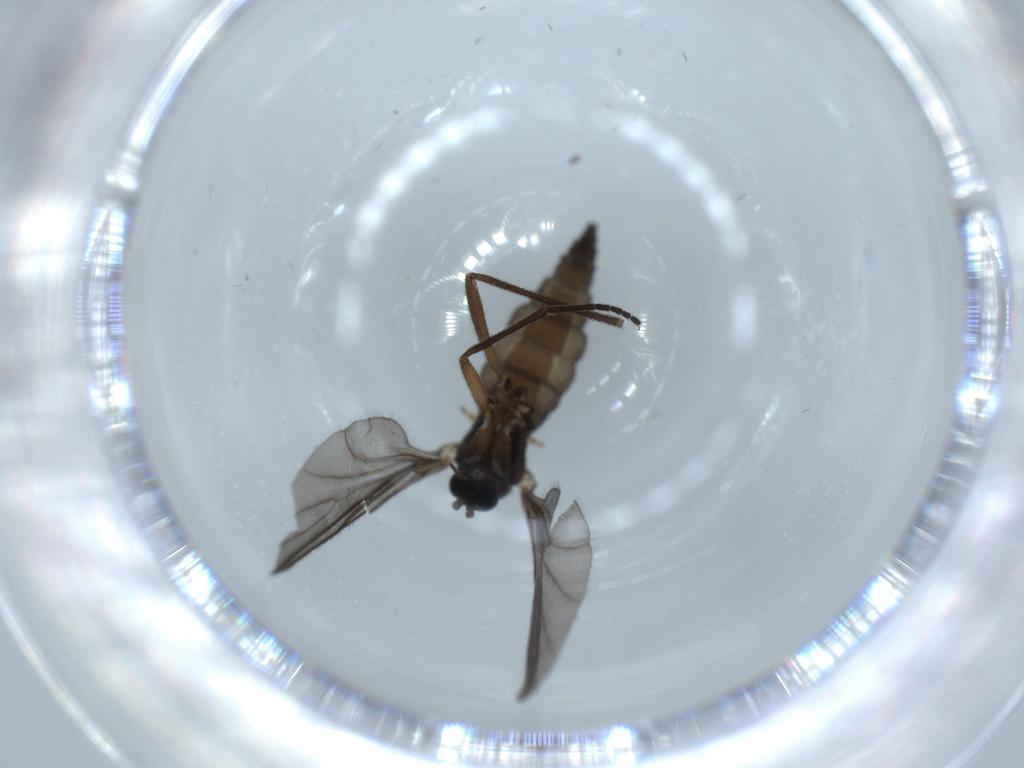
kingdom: Animalia
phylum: Arthropoda
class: Insecta
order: Diptera
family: Sciaridae
